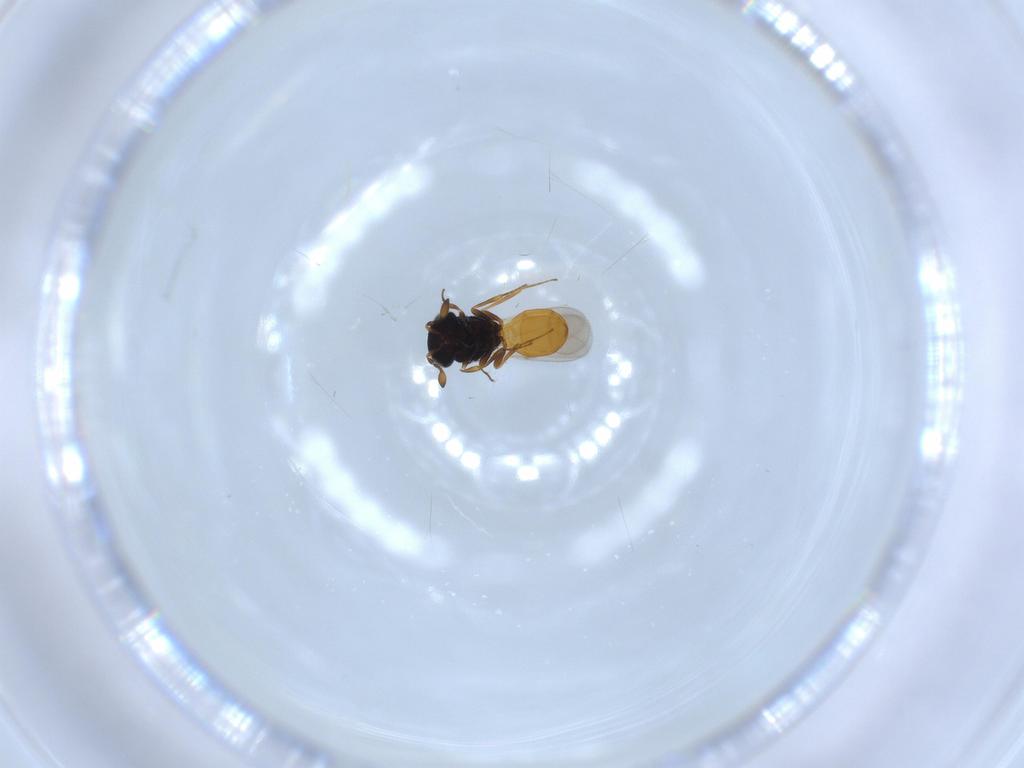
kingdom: Animalia
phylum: Arthropoda
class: Insecta
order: Hymenoptera
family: Scelionidae
